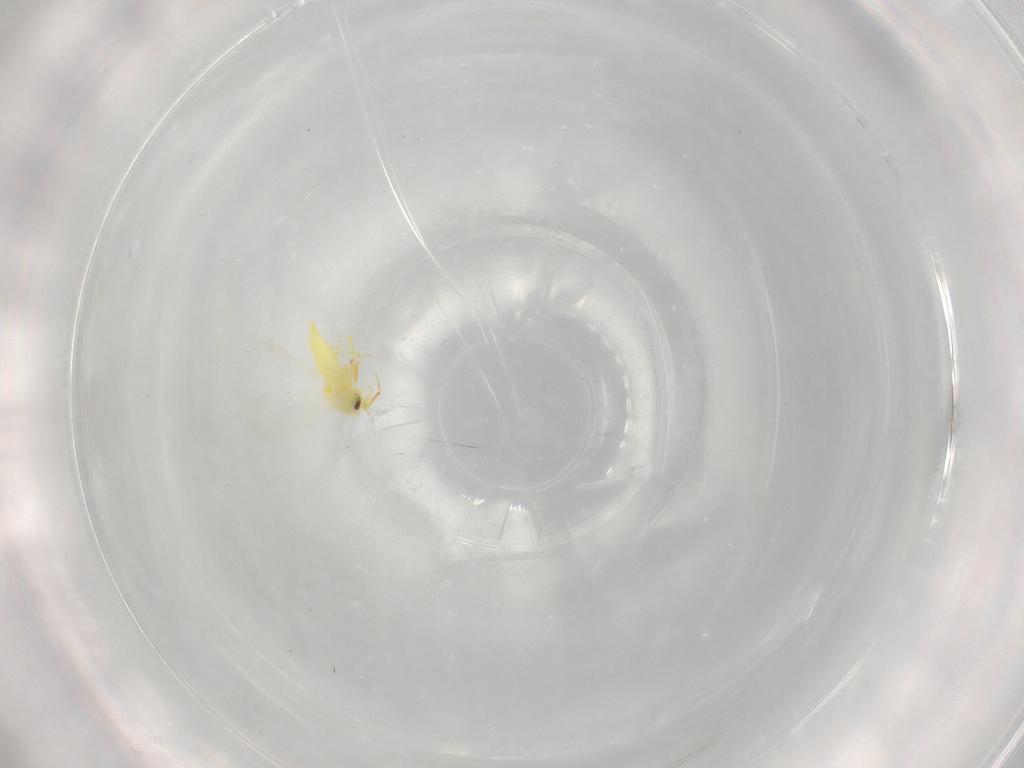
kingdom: Animalia
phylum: Arthropoda
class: Insecta
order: Hemiptera
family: Aleyrodidae
